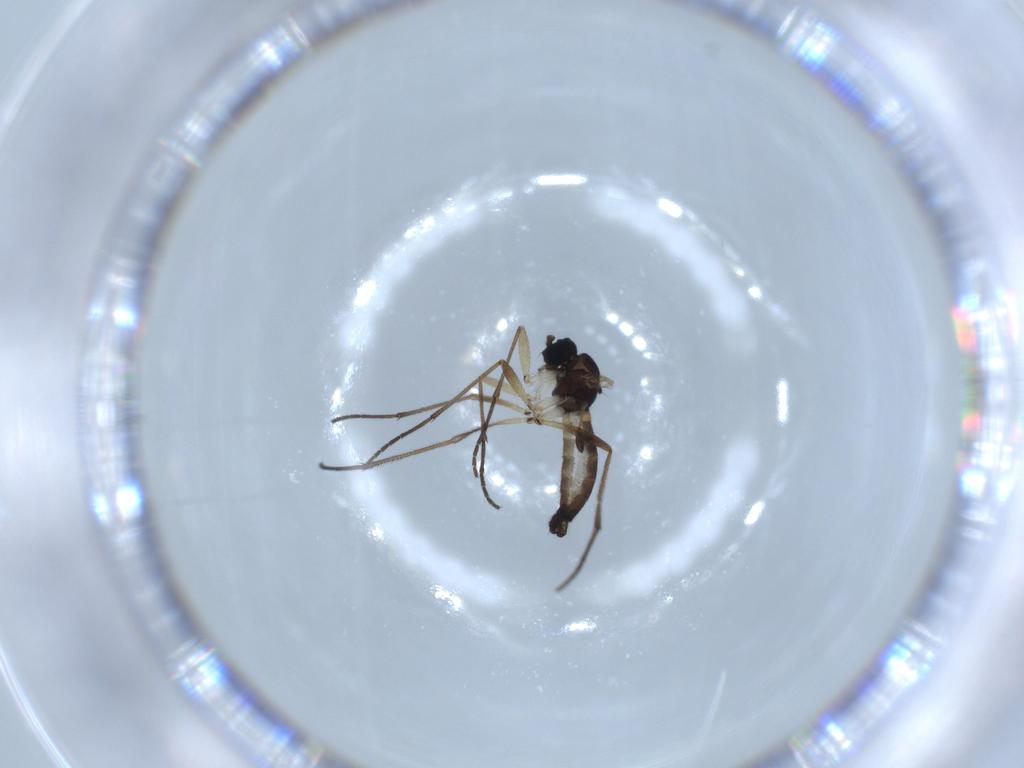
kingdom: Animalia
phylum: Arthropoda
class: Insecta
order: Diptera
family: Sciaridae
